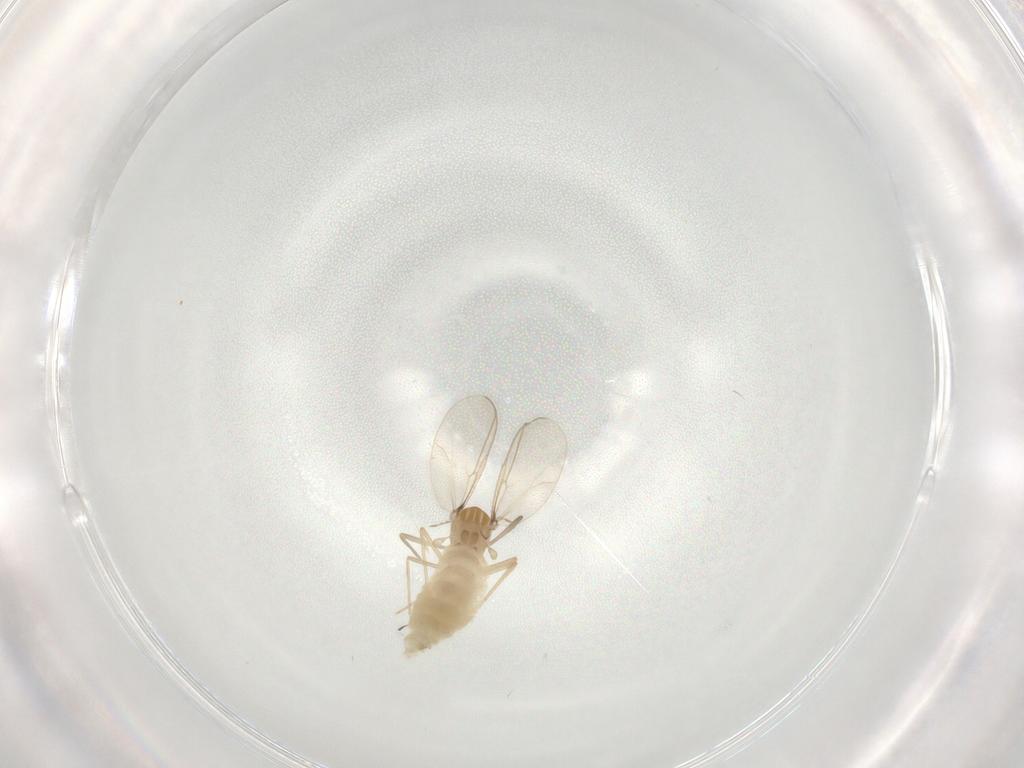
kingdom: Animalia
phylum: Arthropoda
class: Insecta
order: Diptera
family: Chironomidae
